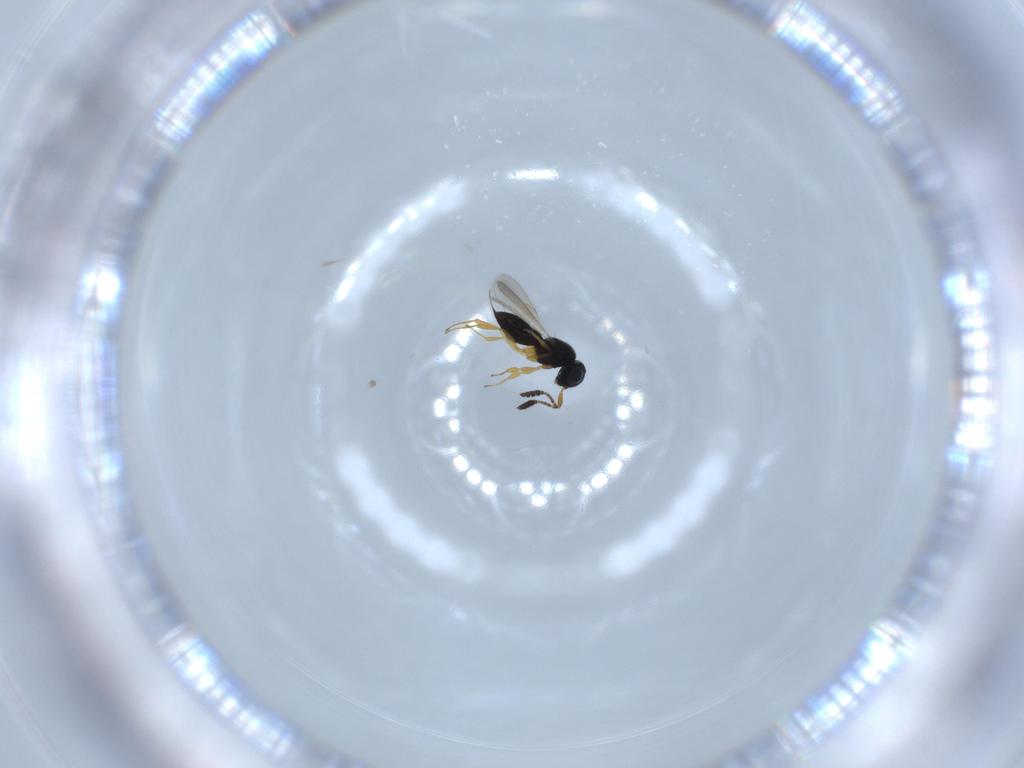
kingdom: Animalia
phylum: Arthropoda
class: Insecta
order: Hymenoptera
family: Scelionidae
